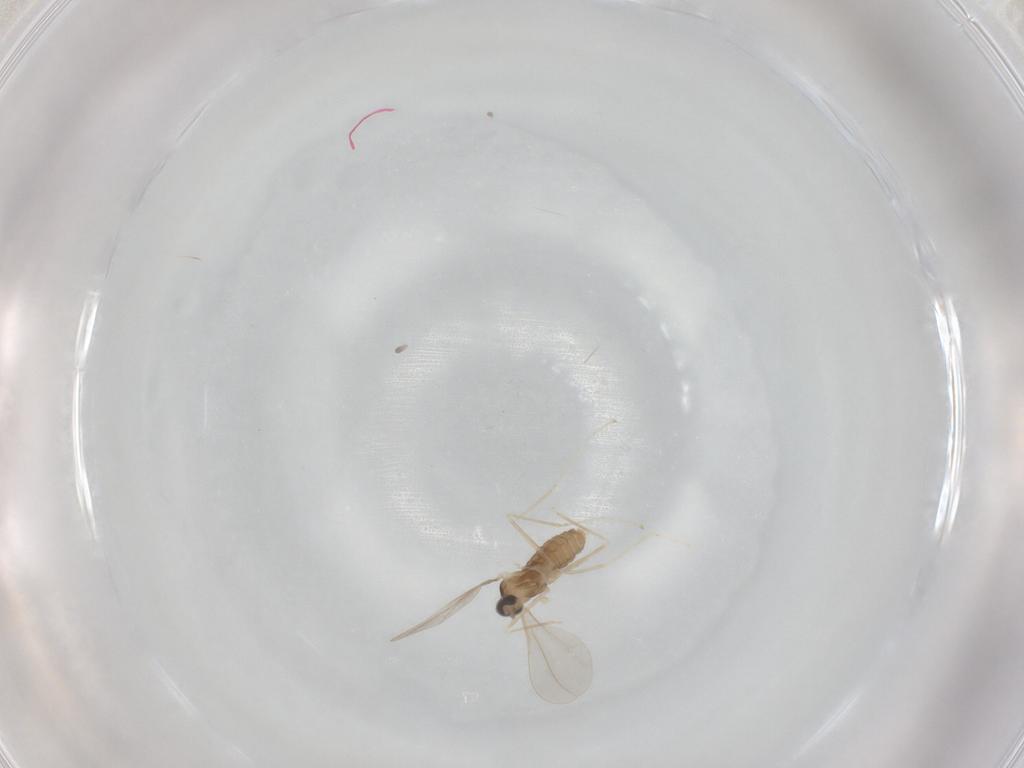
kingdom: Animalia
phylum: Arthropoda
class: Insecta
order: Diptera
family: Cecidomyiidae
